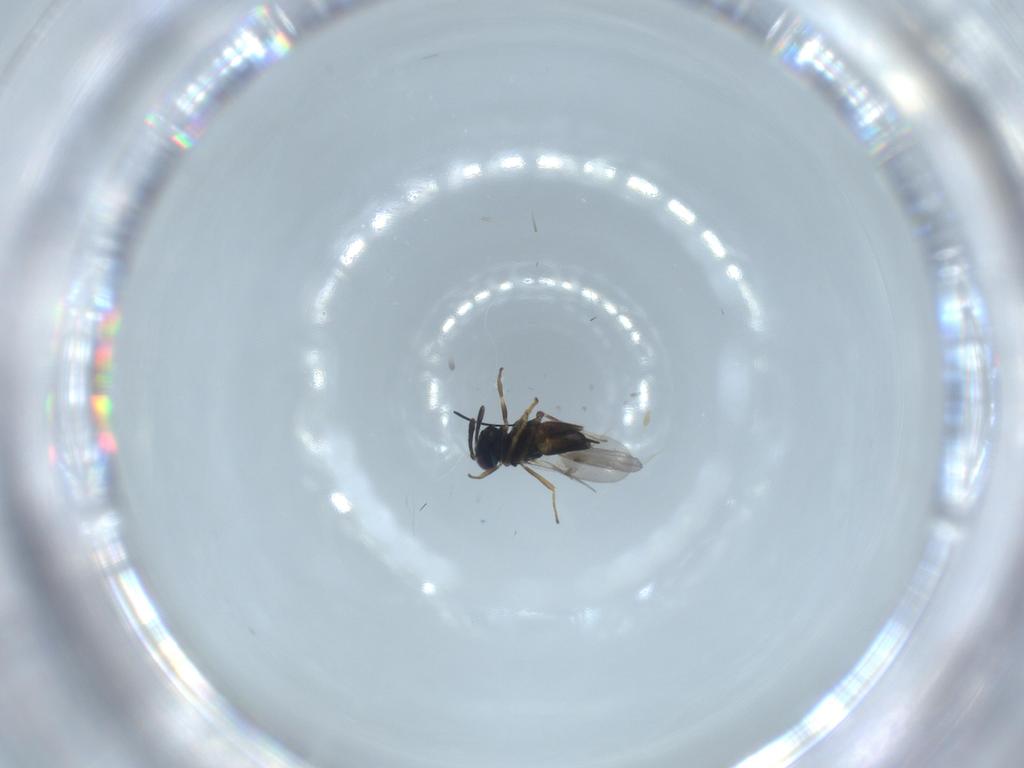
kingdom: Animalia
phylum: Arthropoda
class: Insecta
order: Hymenoptera
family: Encyrtidae
